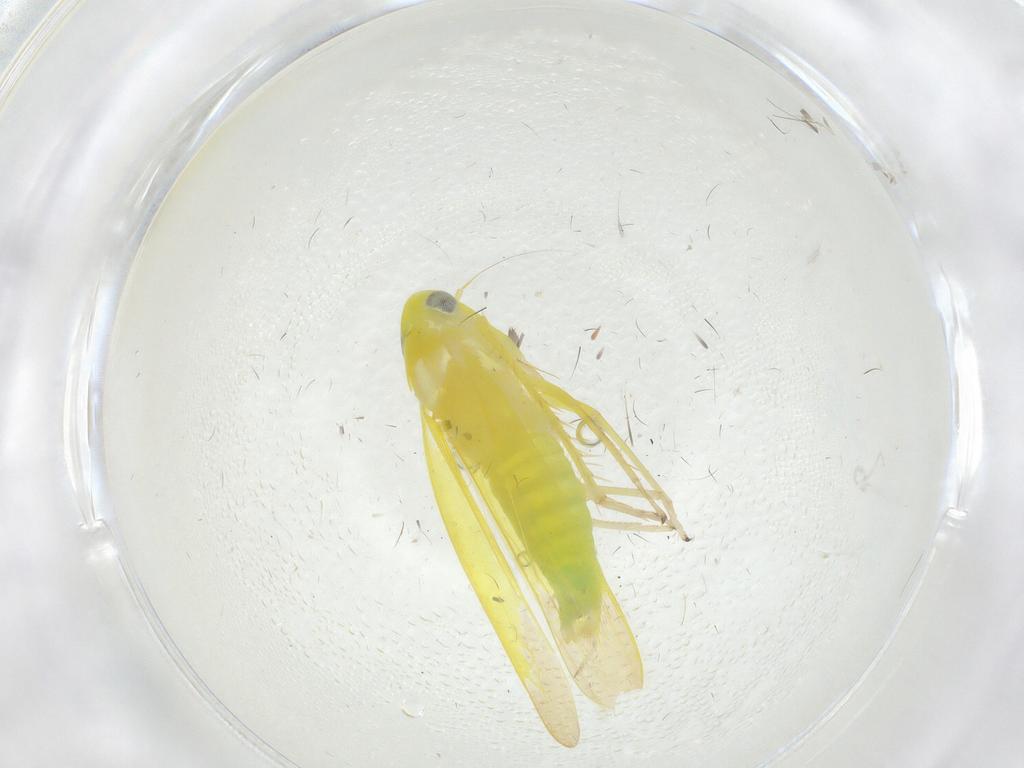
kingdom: Animalia
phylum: Arthropoda
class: Insecta
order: Hemiptera
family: Cicadellidae
